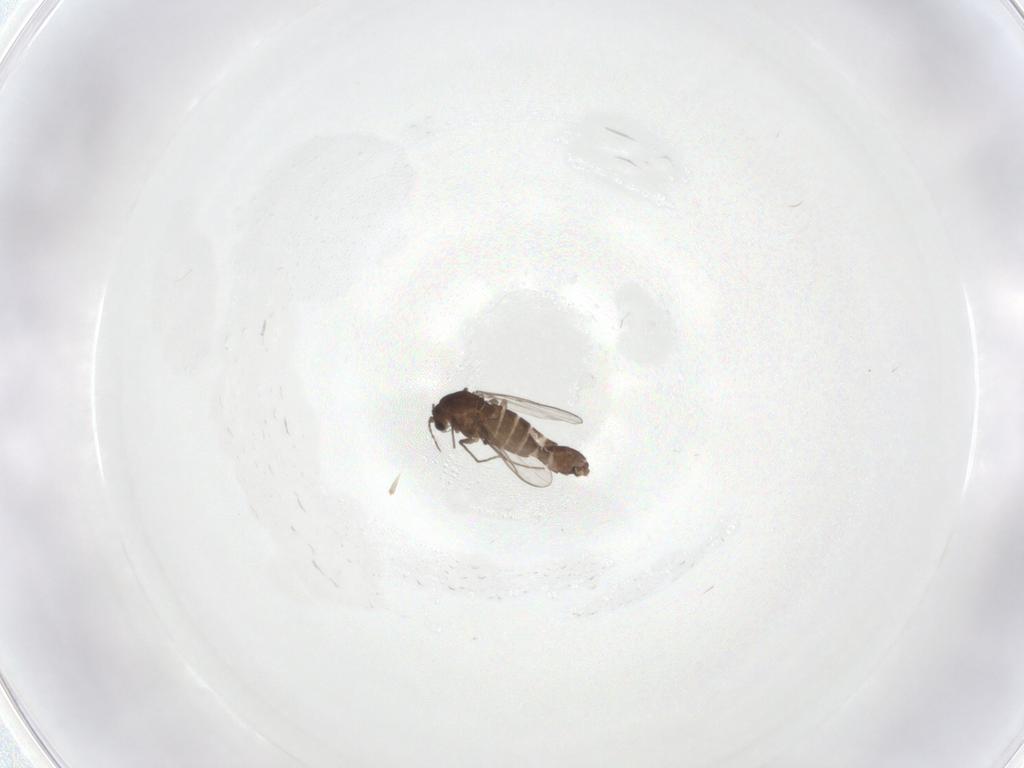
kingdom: Animalia
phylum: Arthropoda
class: Insecta
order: Diptera
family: Chironomidae
